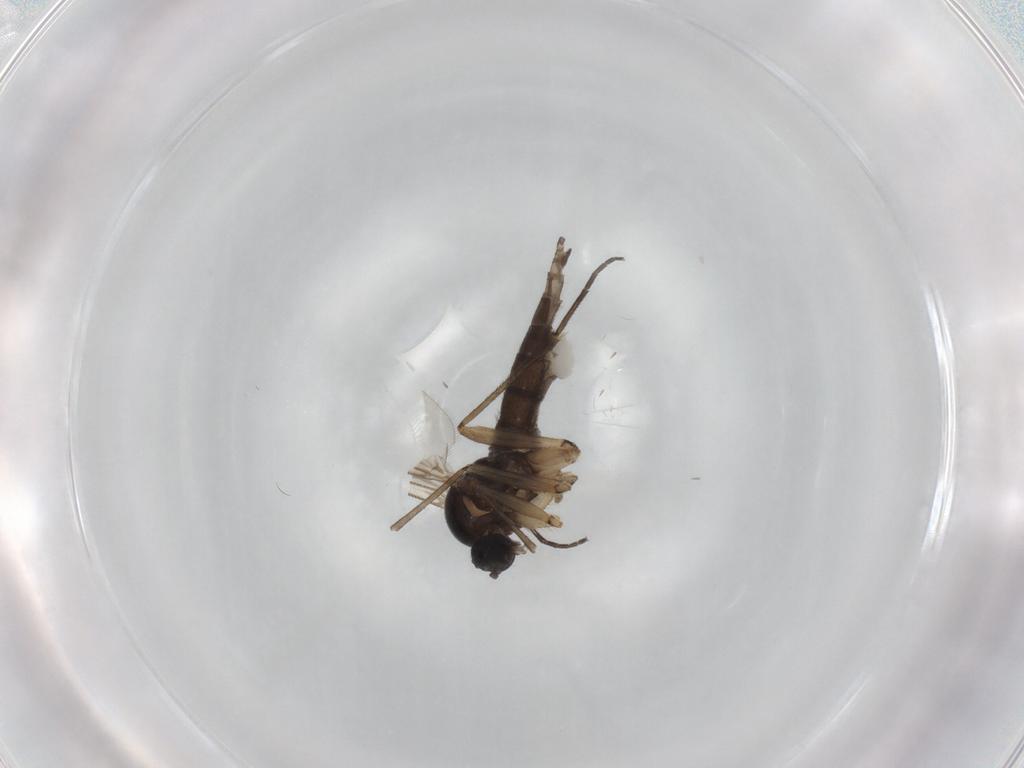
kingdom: Animalia
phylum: Arthropoda
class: Insecta
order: Diptera
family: Sciaridae
